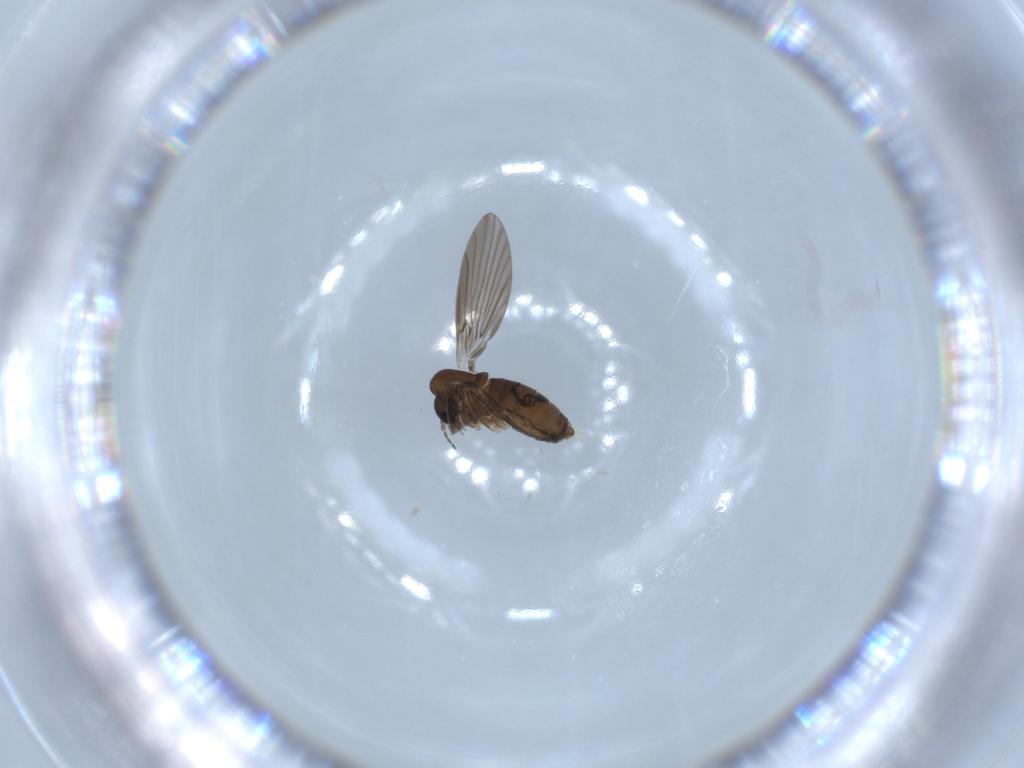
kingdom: Animalia
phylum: Arthropoda
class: Insecta
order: Diptera
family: Psychodidae
